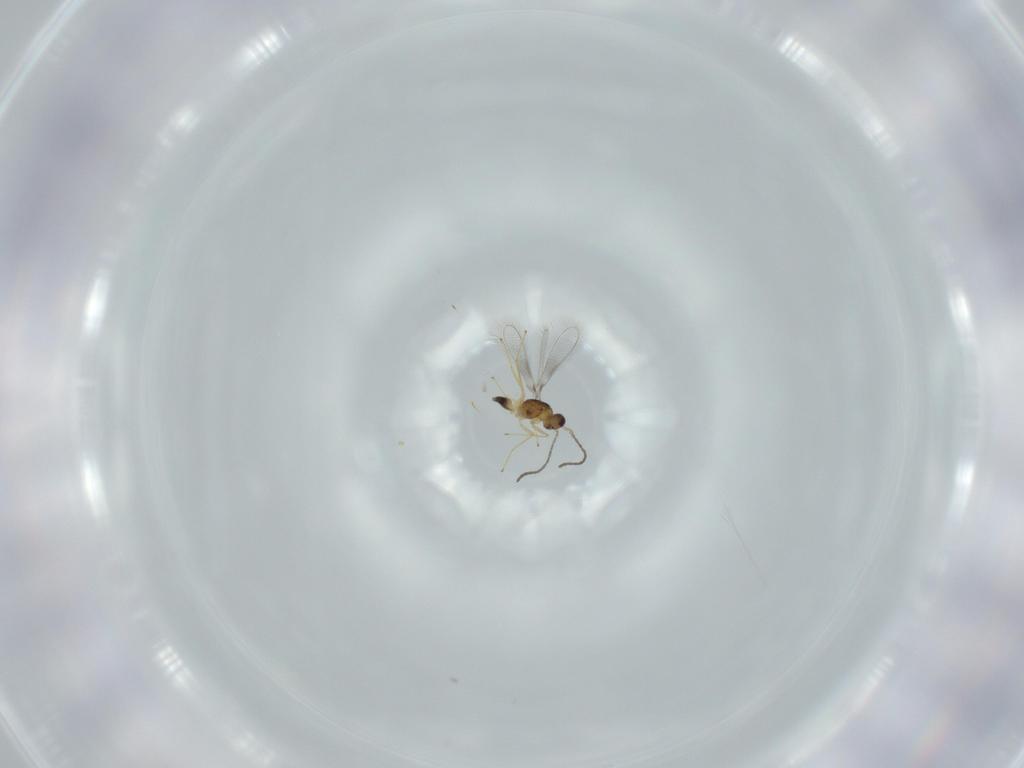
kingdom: Animalia
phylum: Arthropoda
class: Insecta
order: Hymenoptera
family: Mymaridae
